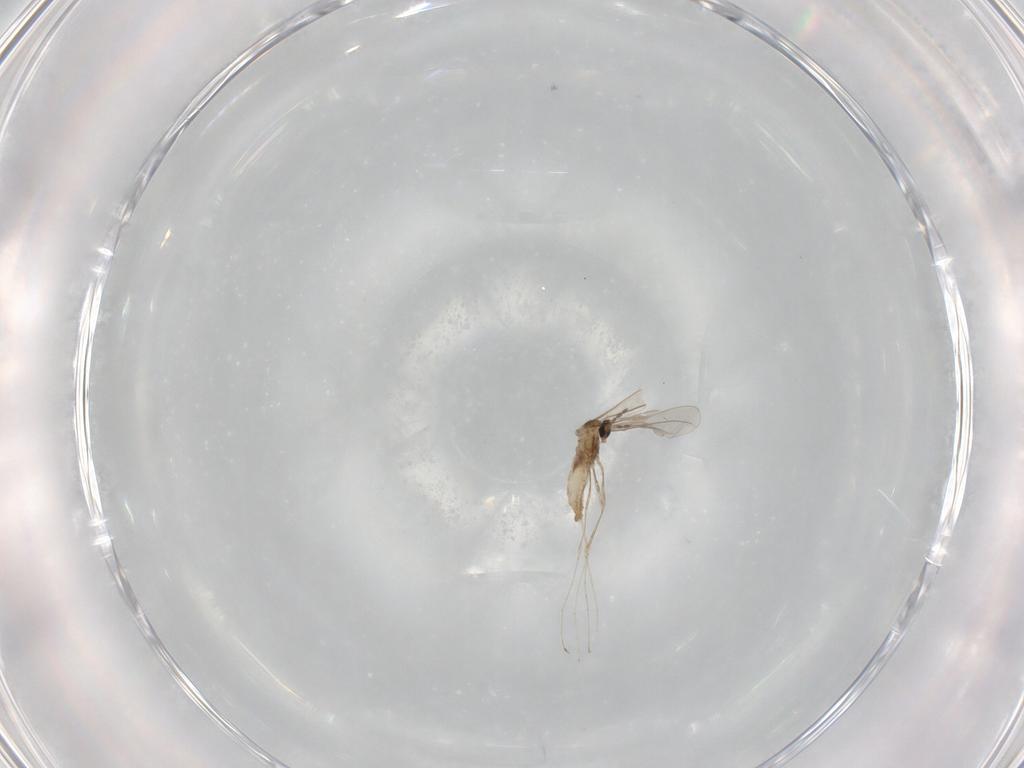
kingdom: Animalia
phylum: Arthropoda
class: Insecta
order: Diptera
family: Cecidomyiidae
